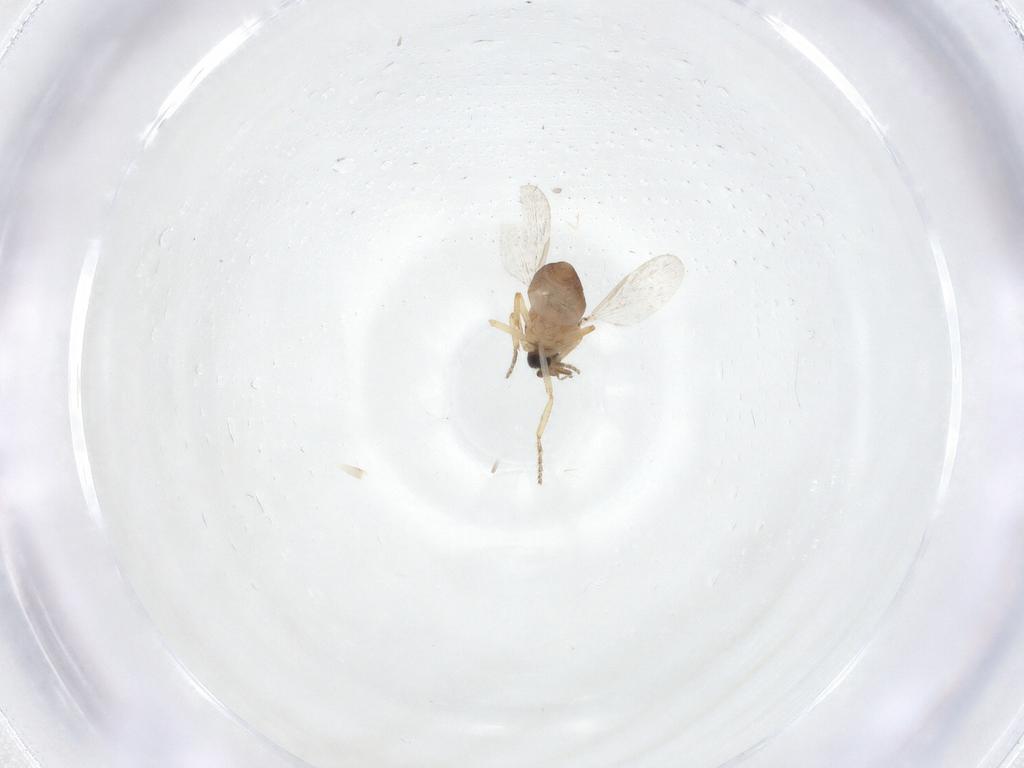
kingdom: Animalia
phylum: Arthropoda
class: Insecta
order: Diptera
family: Ceratopogonidae
